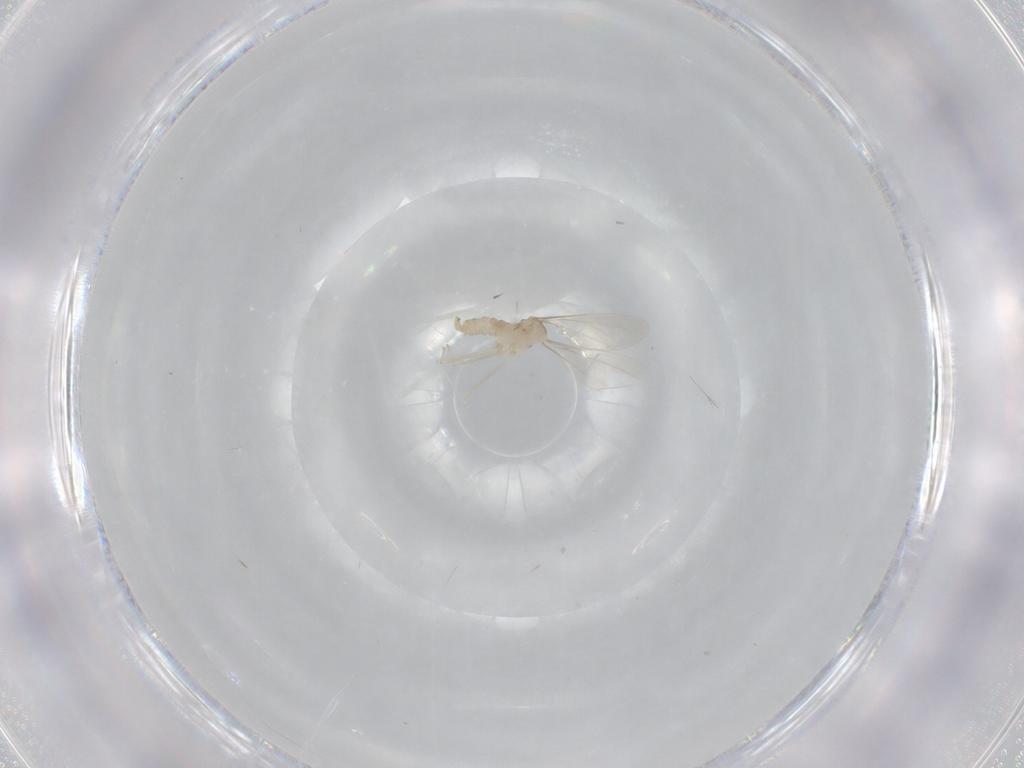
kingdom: Animalia
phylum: Arthropoda
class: Insecta
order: Diptera
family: Cecidomyiidae
